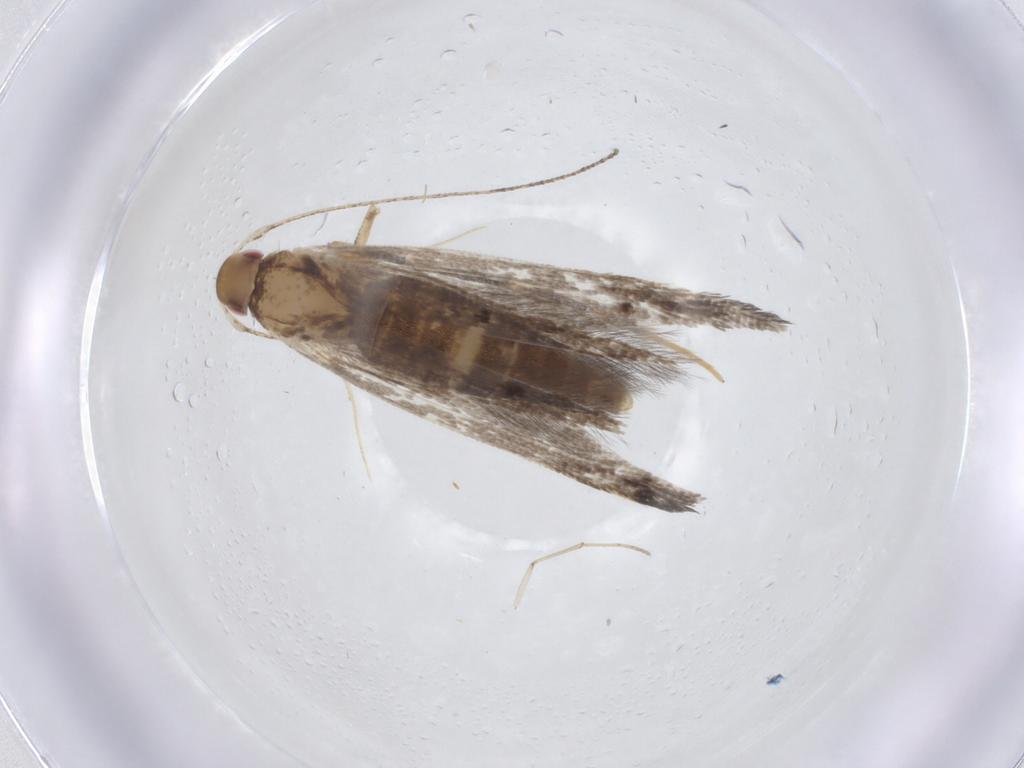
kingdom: Animalia
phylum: Arthropoda
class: Insecta
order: Lepidoptera
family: Cosmopterigidae
